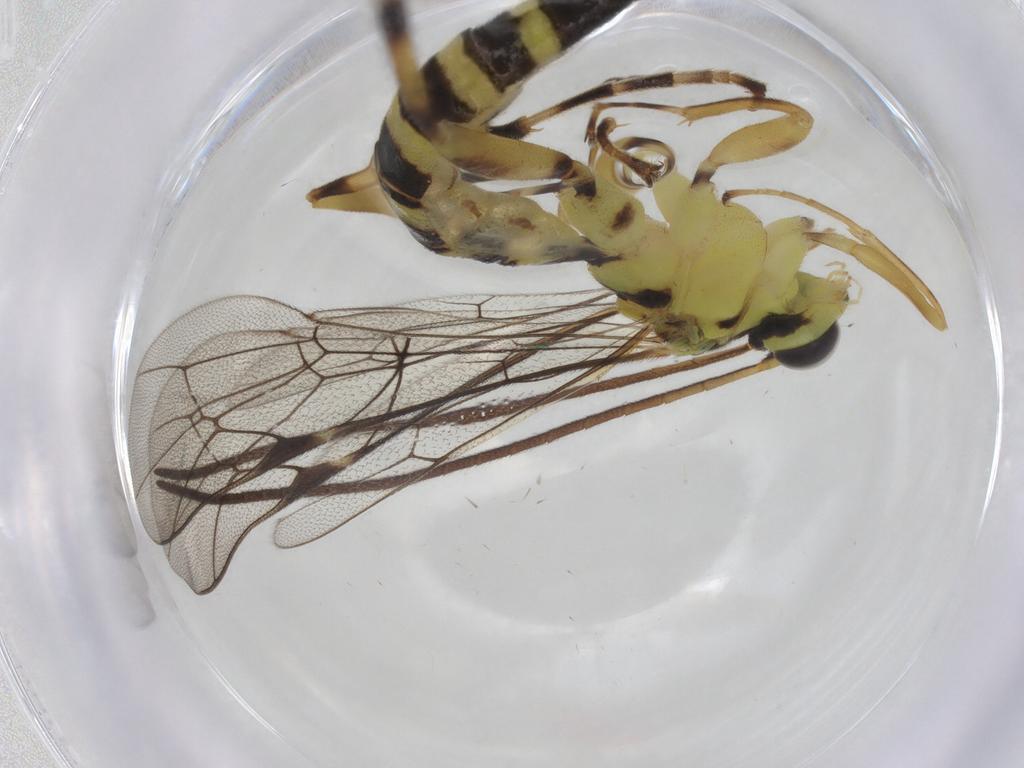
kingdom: Animalia
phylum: Arthropoda
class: Insecta
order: Hymenoptera
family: Ichneumonidae
